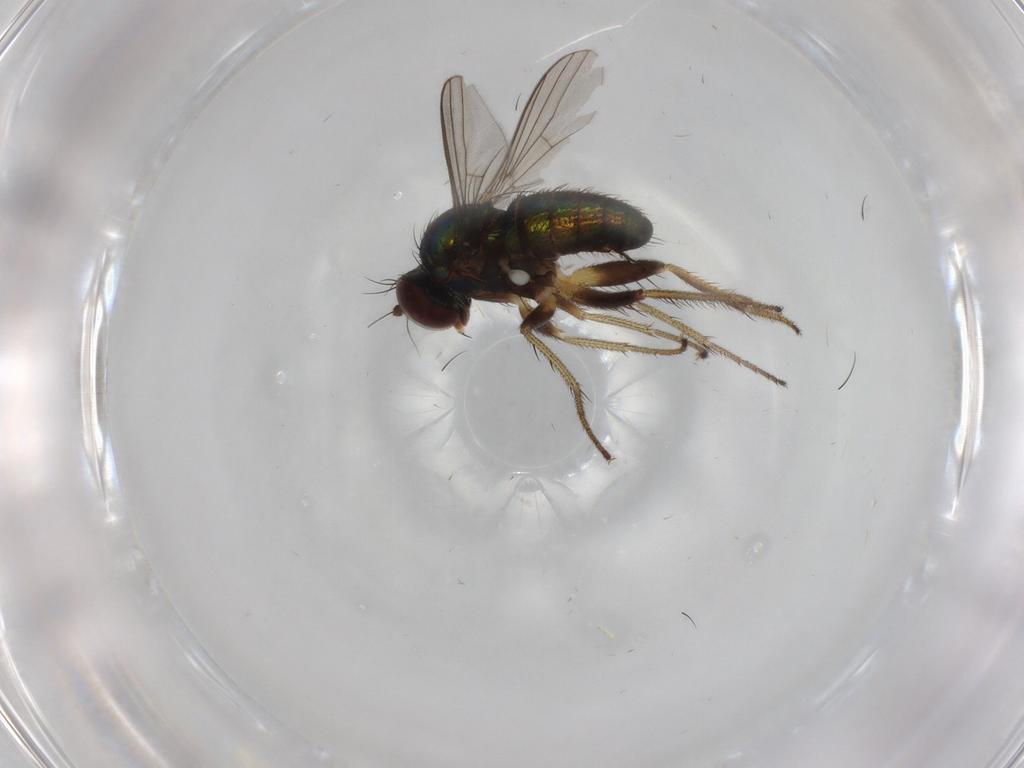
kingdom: Animalia
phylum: Arthropoda
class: Insecta
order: Diptera
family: Dolichopodidae
